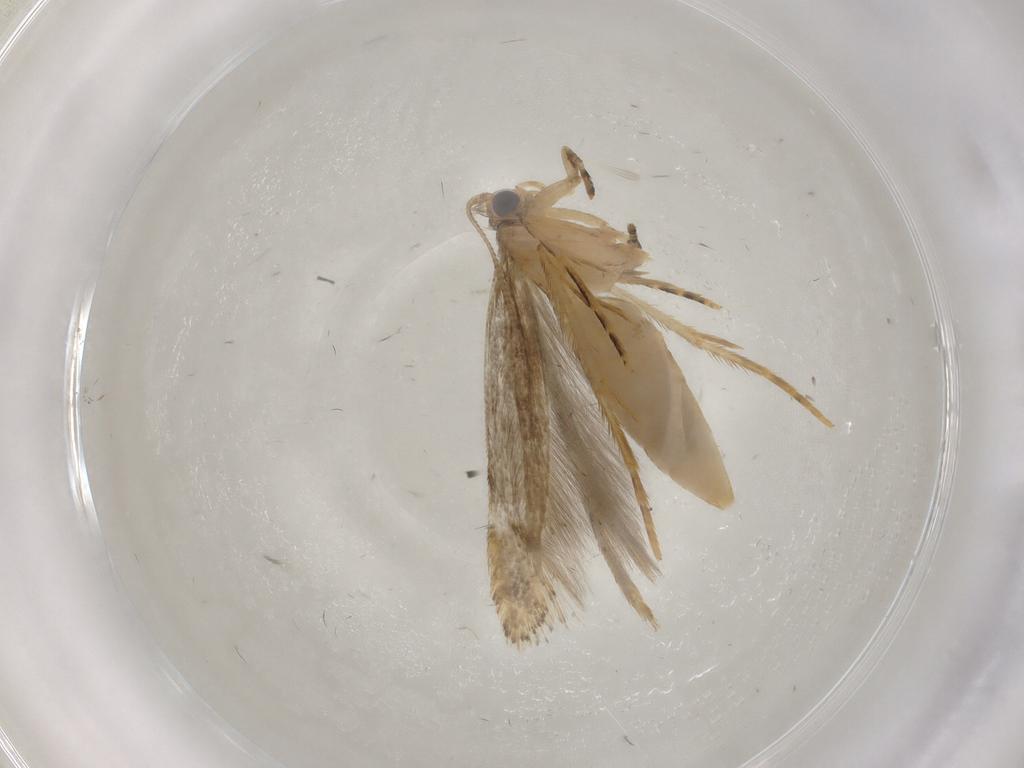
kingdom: Animalia
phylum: Arthropoda
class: Insecta
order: Lepidoptera
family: Tineidae
